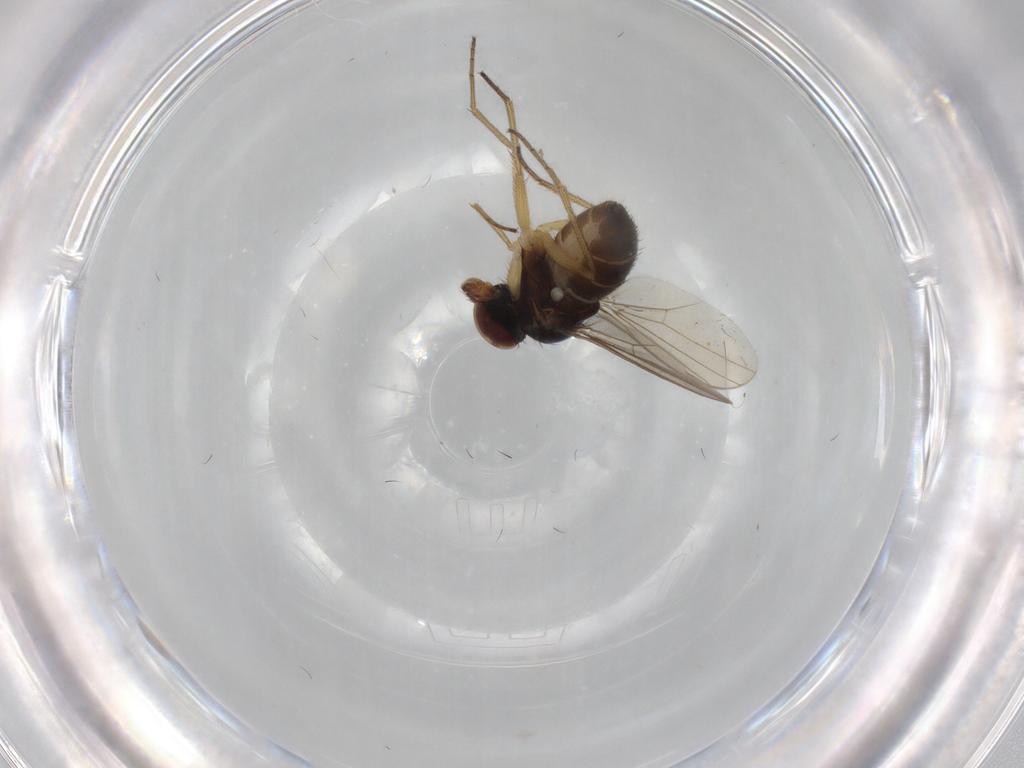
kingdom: Animalia
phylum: Arthropoda
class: Insecta
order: Diptera
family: Dolichopodidae
